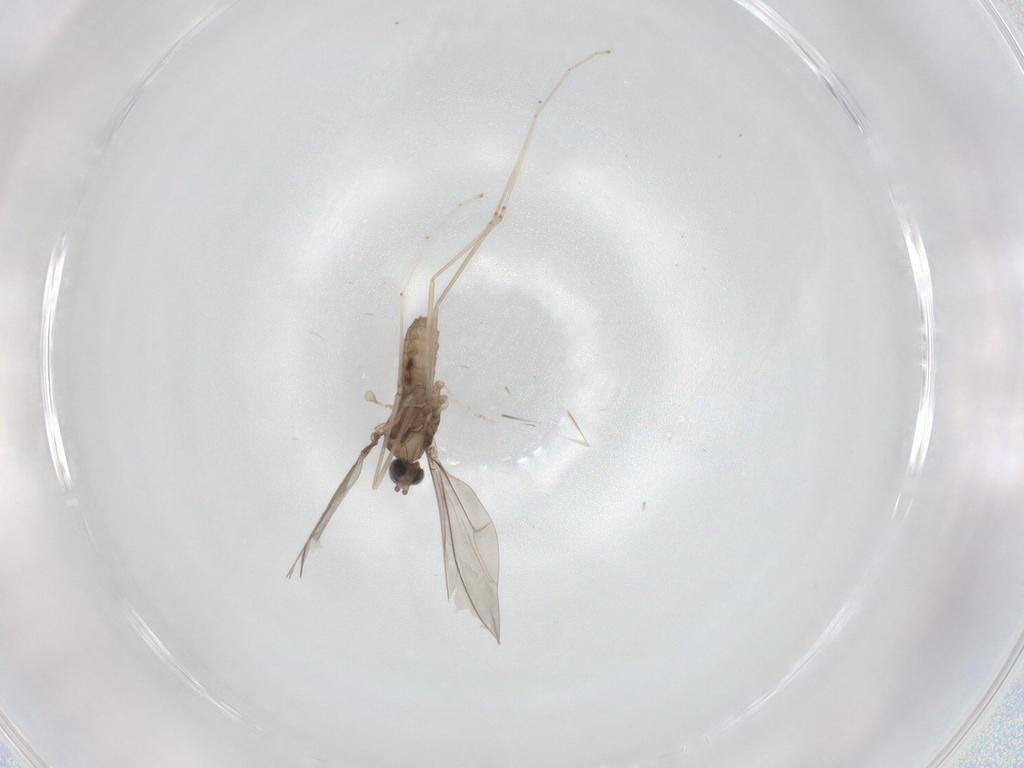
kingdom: Animalia
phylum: Arthropoda
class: Insecta
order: Diptera
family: Cecidomyiidae
